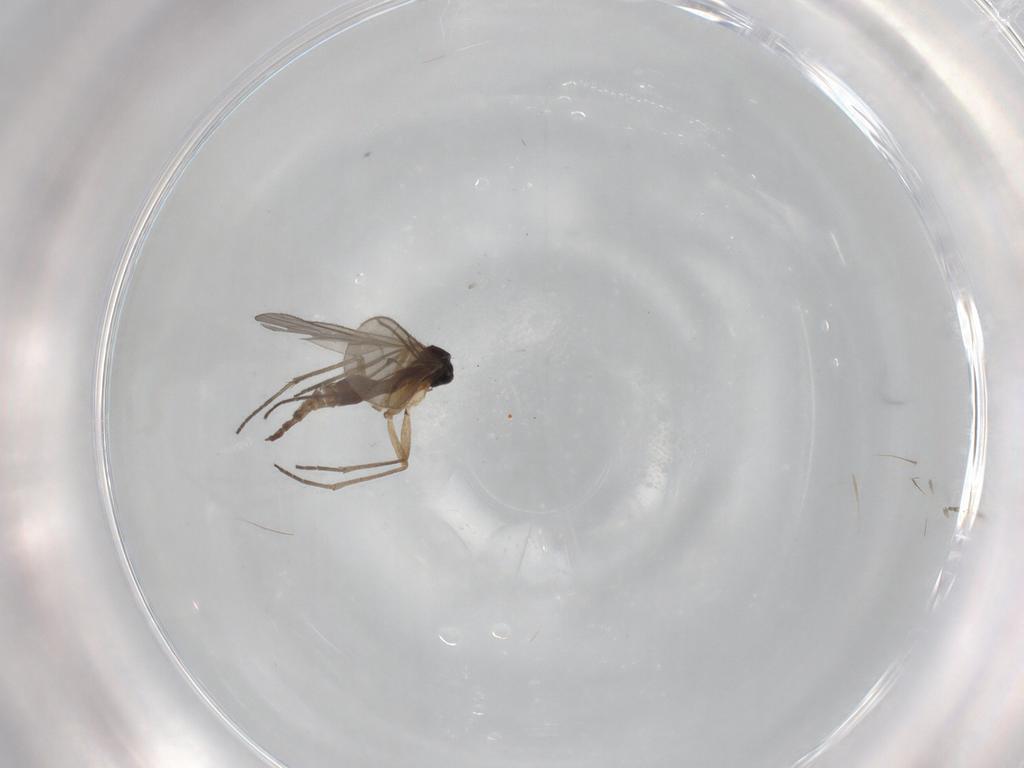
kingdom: Animalia
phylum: Arthropoda
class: Insecta
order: Diptera
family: Sciaridae
